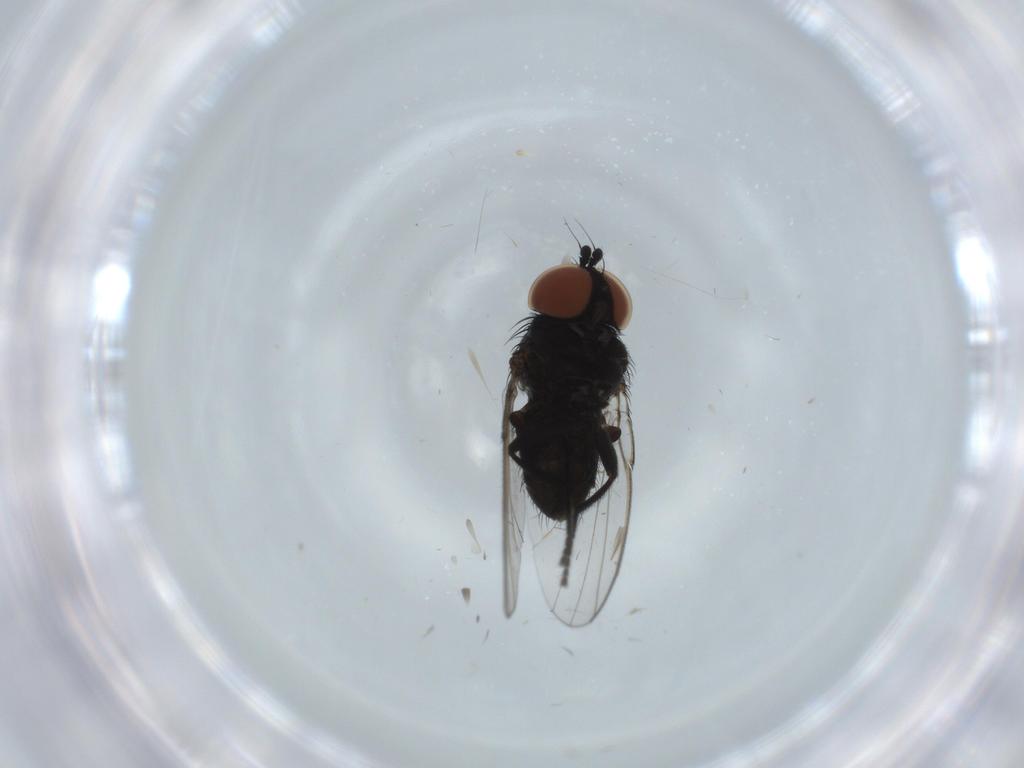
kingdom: Animalia
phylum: Arthropoda
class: Insecta
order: Diptera
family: Milichiidae
